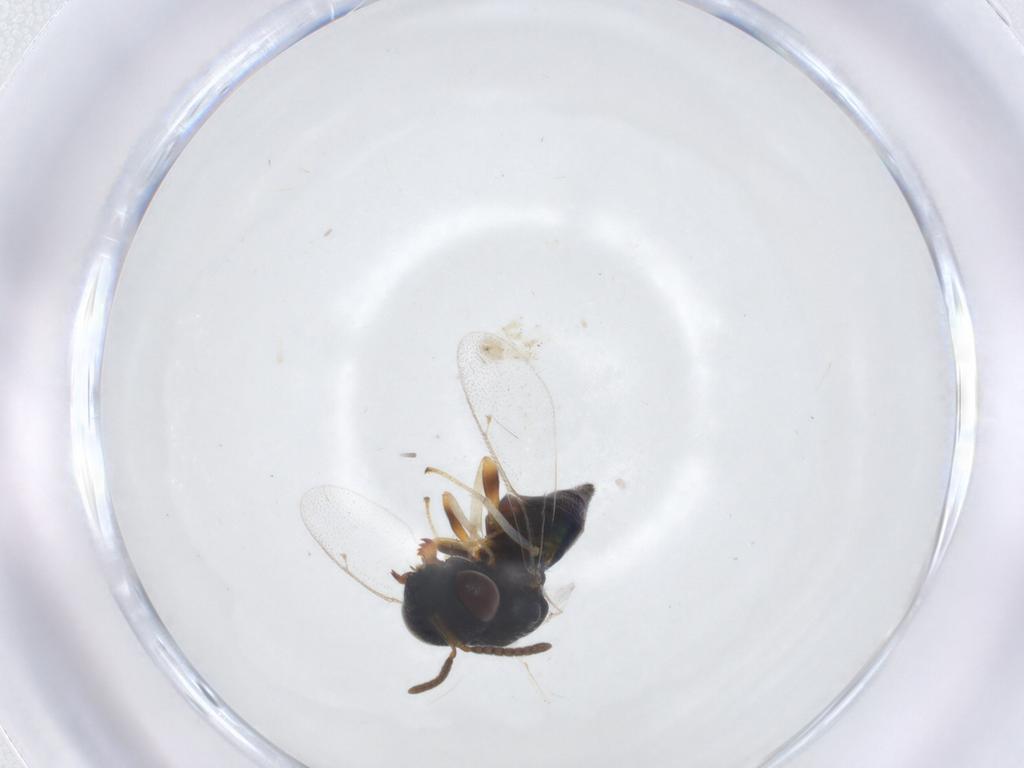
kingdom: Animalia
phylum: Arthropoda
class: Insecta
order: Hymenoptera
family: Pteromalidae
